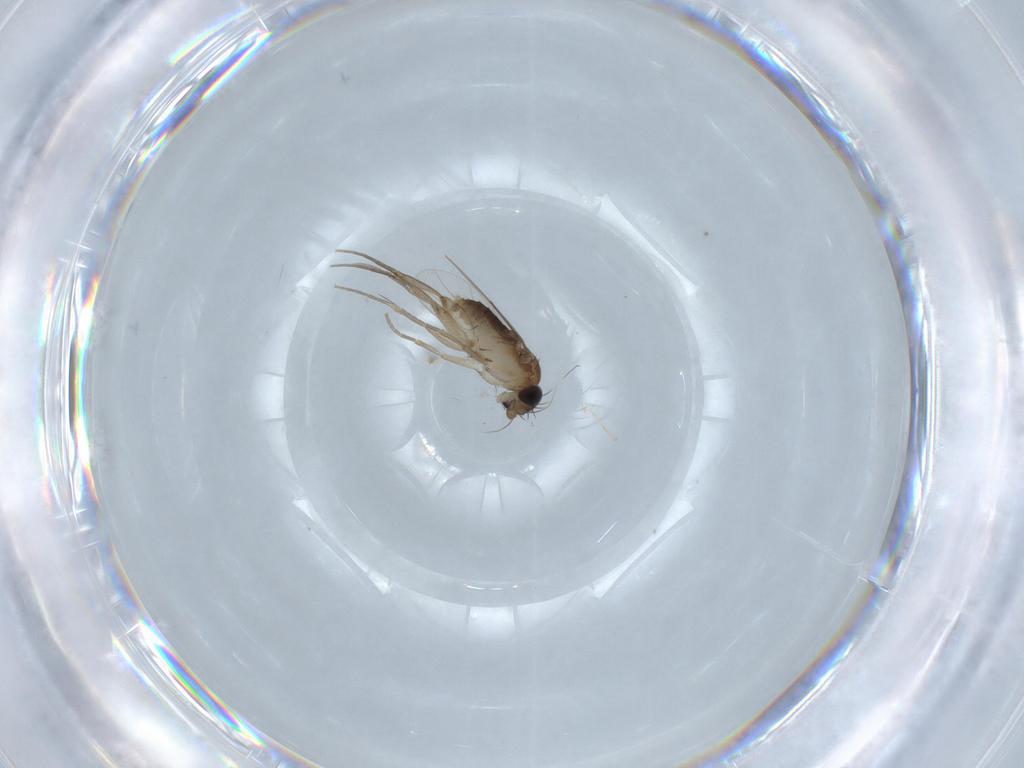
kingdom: Animalia
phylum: Arthropoda
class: Insecta
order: Diptera
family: Phoridae
